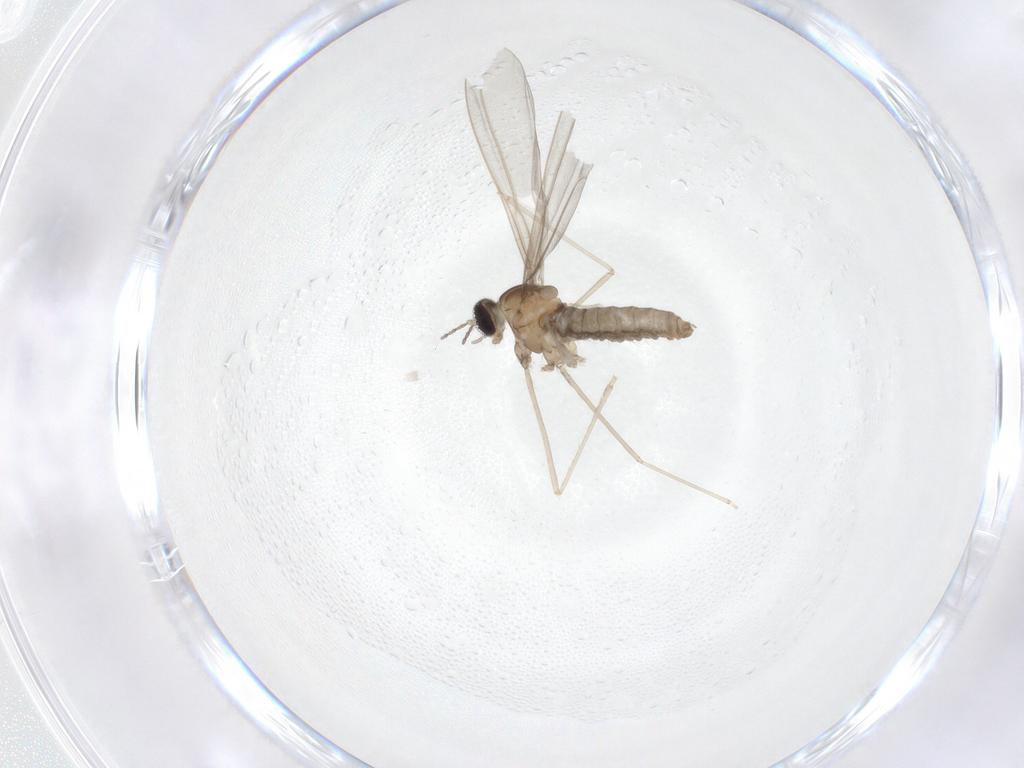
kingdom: Animalia
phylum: Arthropoda
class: Insecta
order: Diptera
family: Cecidomyiidae
